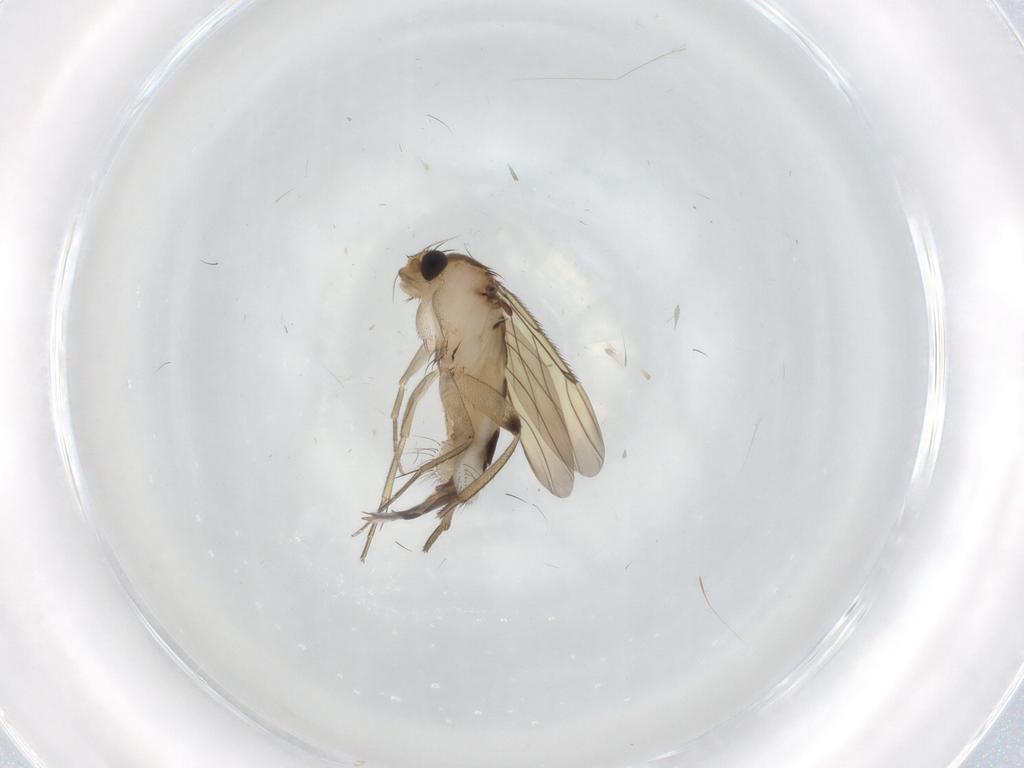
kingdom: Animalia
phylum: Arthropoda
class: Insecta
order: Diptera
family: Phoridae
